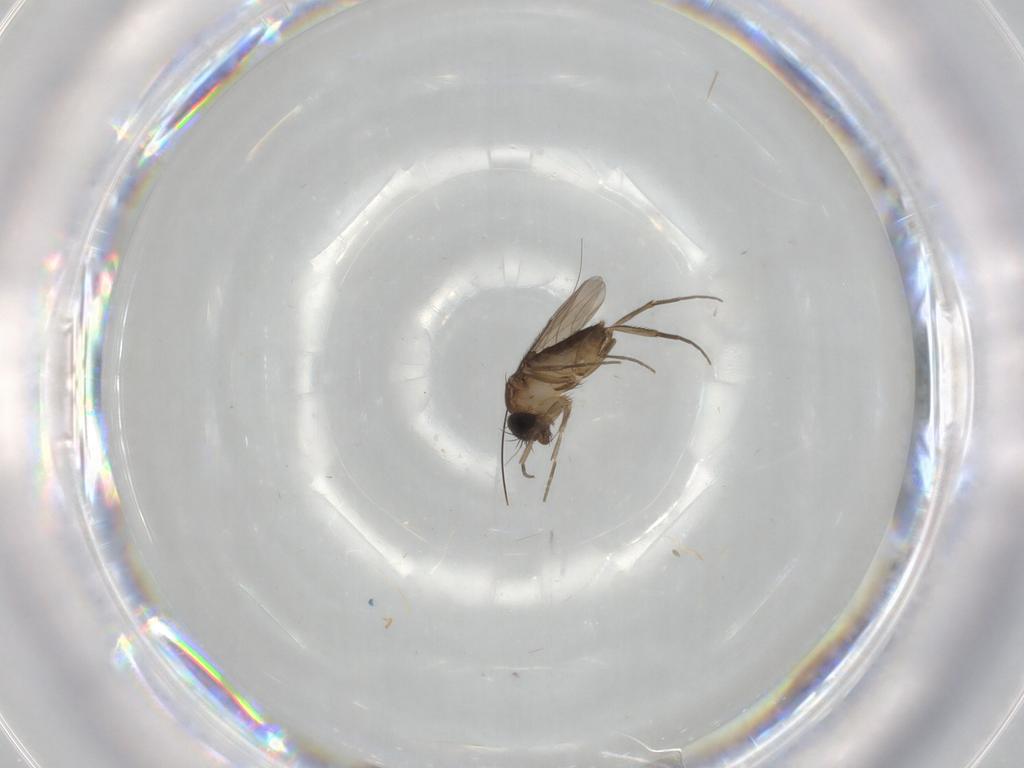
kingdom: Animalia
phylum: Arthropoda
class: Insecta
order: Diptera
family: Phoridae
